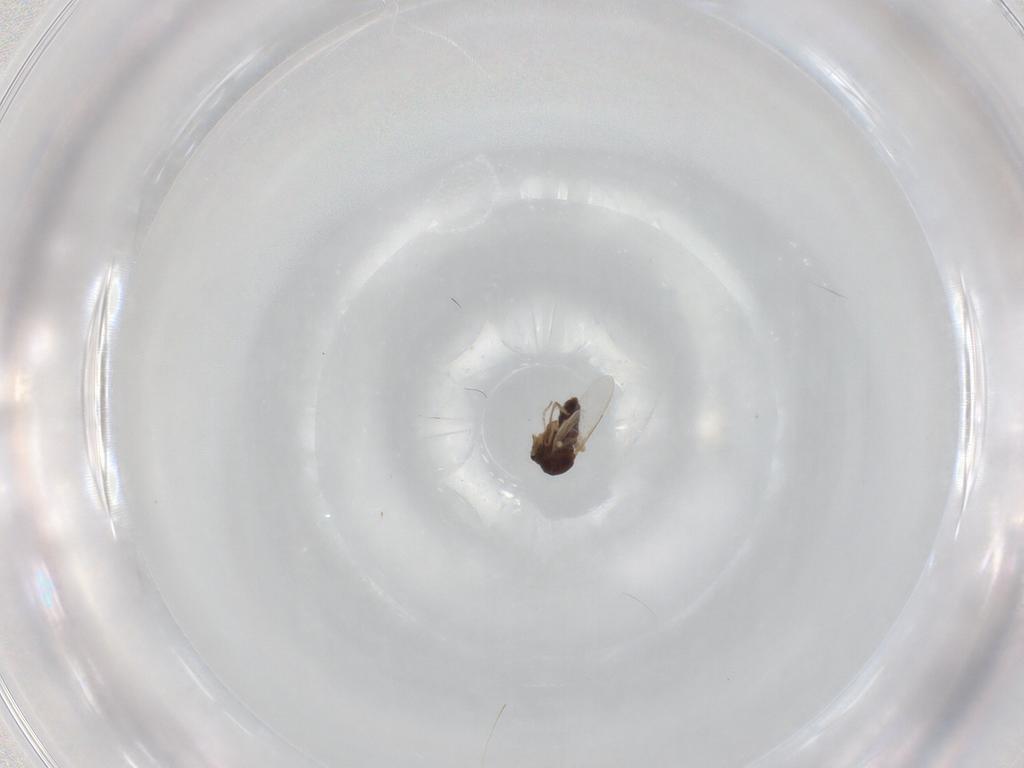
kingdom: Animalia
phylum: Arthropoda
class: Insecta
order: Diptera
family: Ceratopogonidae
